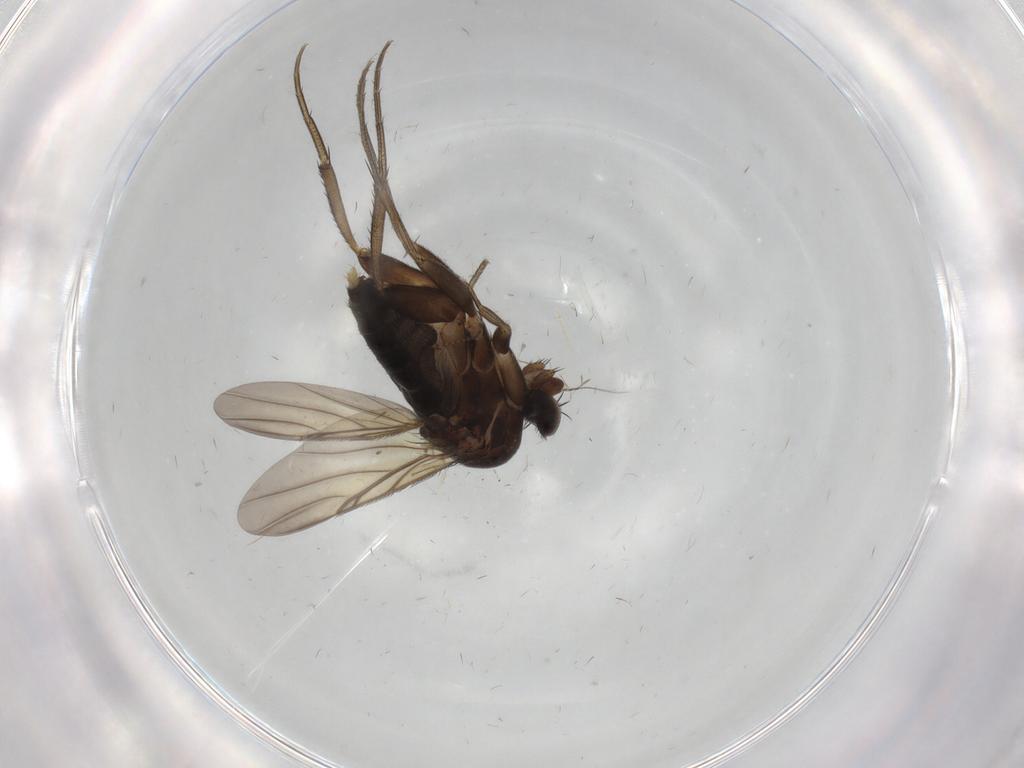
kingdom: Animalia
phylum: Arthropoda
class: Insecta
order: Diptera
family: Phoridae
